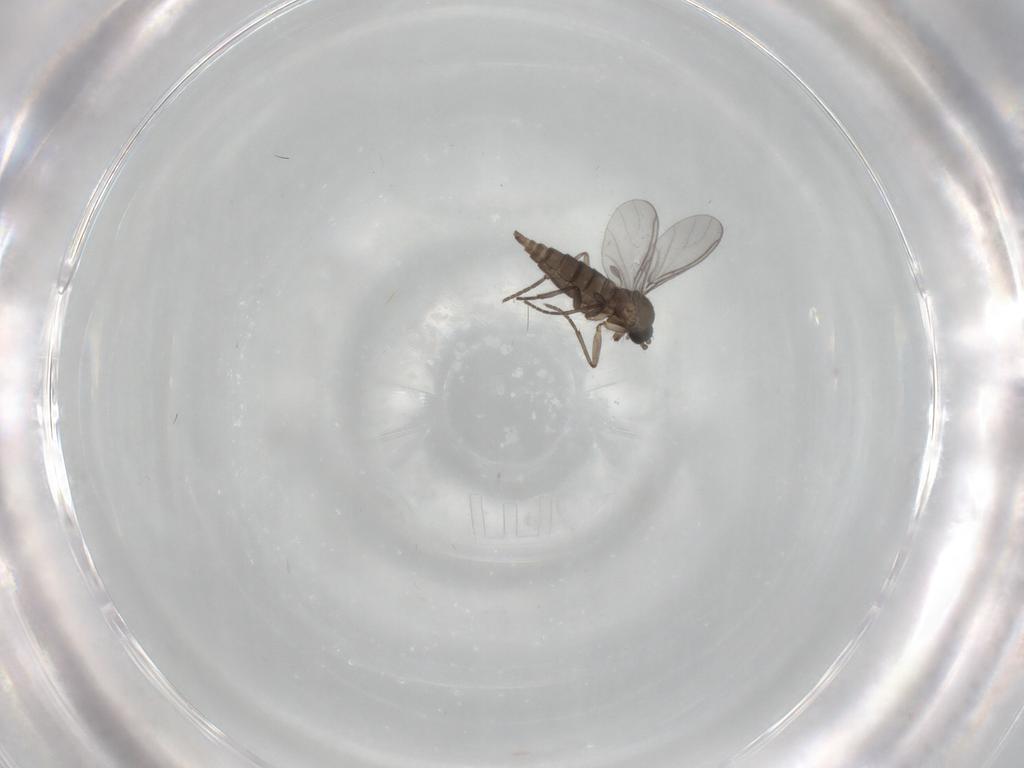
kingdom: Animalia
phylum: Arthropoda
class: Insecta
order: Diptera
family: Sciaridae
